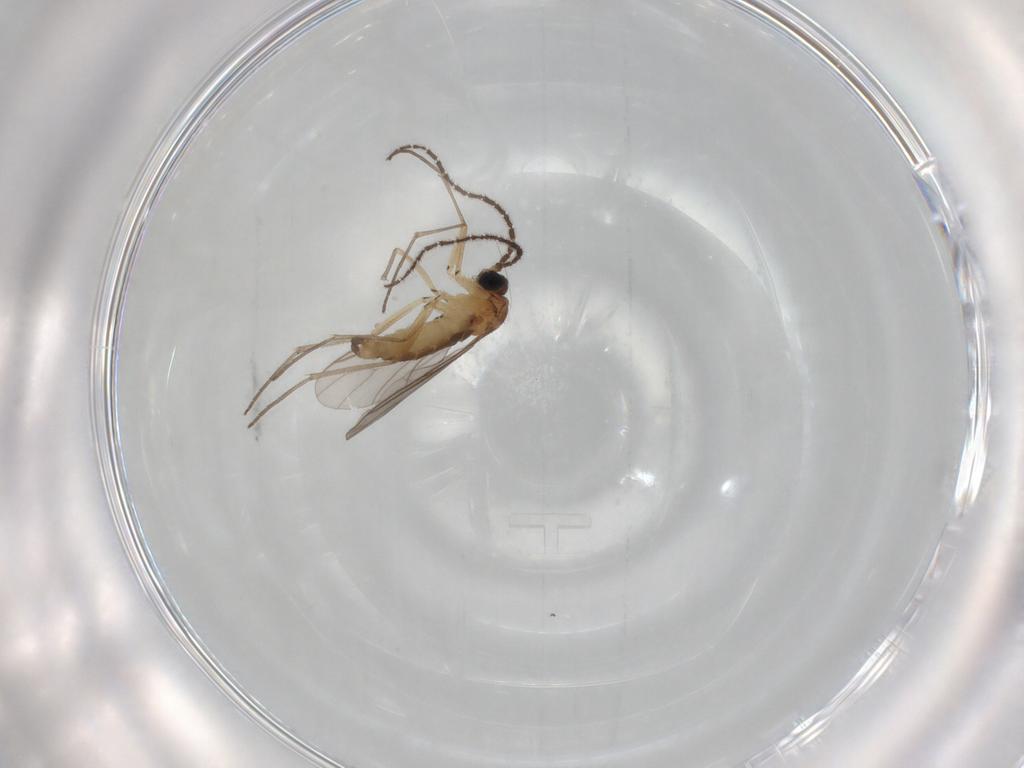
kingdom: Animalia
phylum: Arthropoda
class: Insecta
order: Diptera
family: Sciaridae
